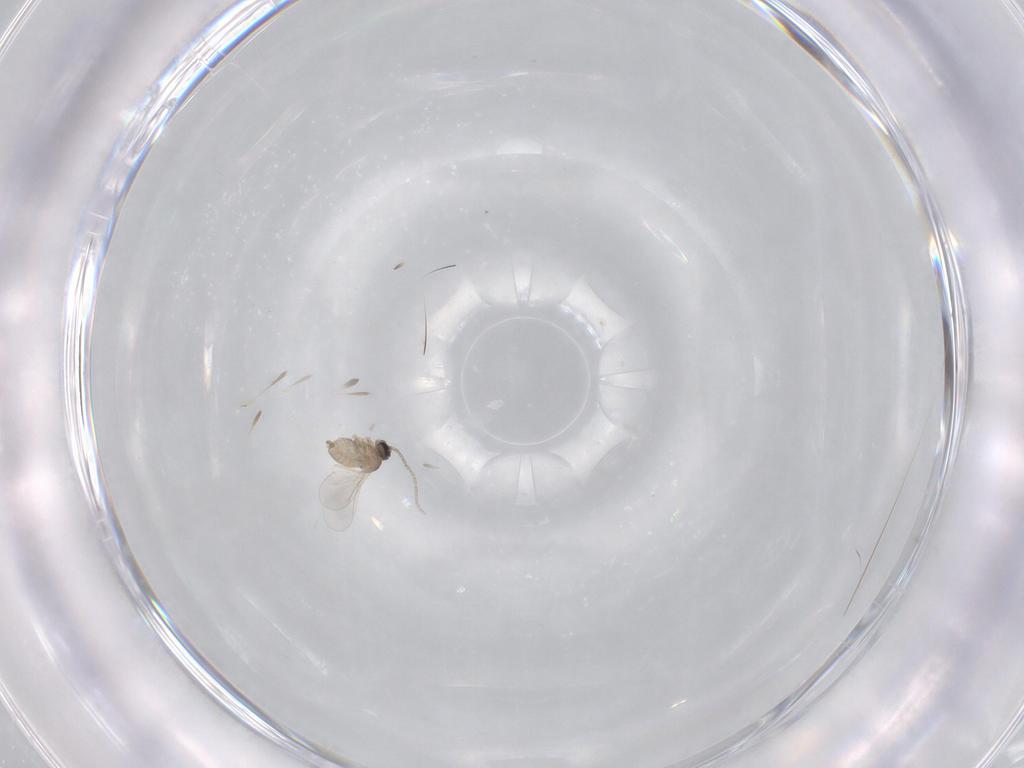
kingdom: Animalia
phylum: Arthropoda
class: Insecta
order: Diptera
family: Cecidomyiidae
